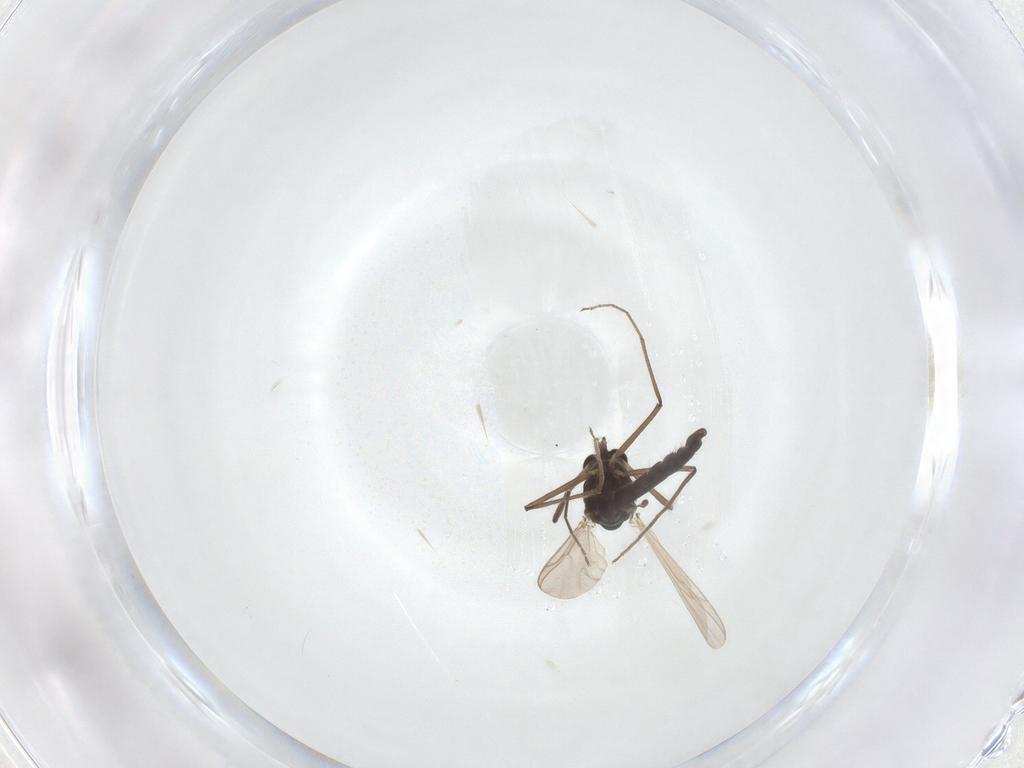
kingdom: Animalia
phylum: Arthropoda
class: Insecta
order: Diptera
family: Chironomidae
